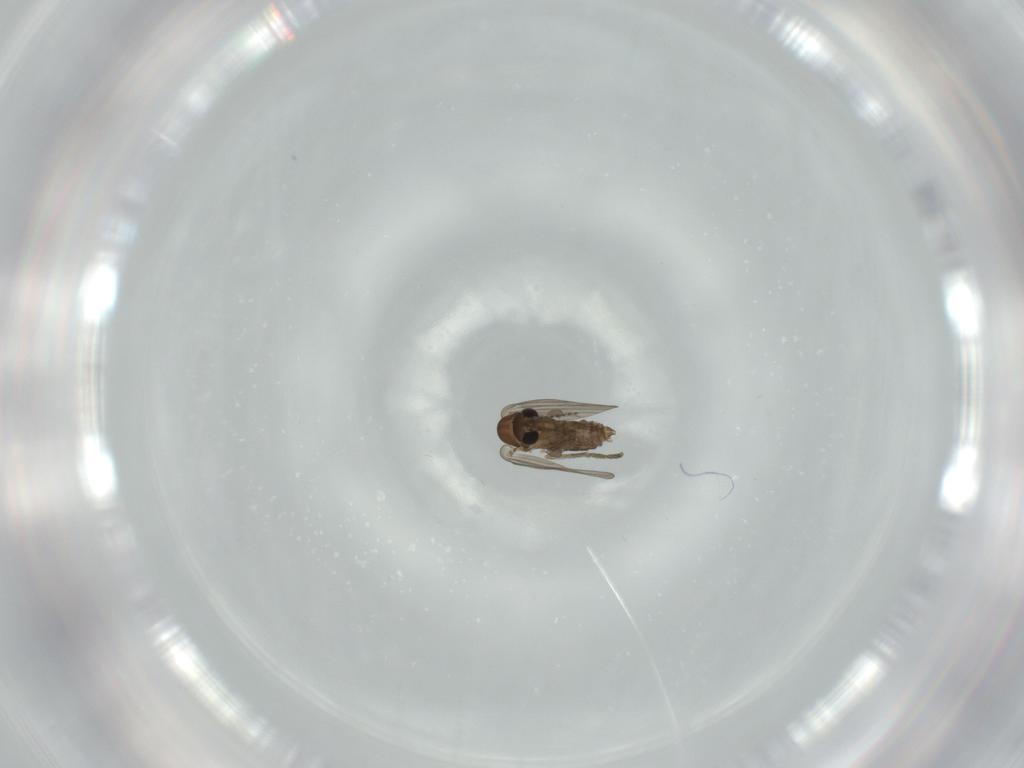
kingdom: Animalia
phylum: Arthropoda
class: Insecta
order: Diptera
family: Psychodidae
